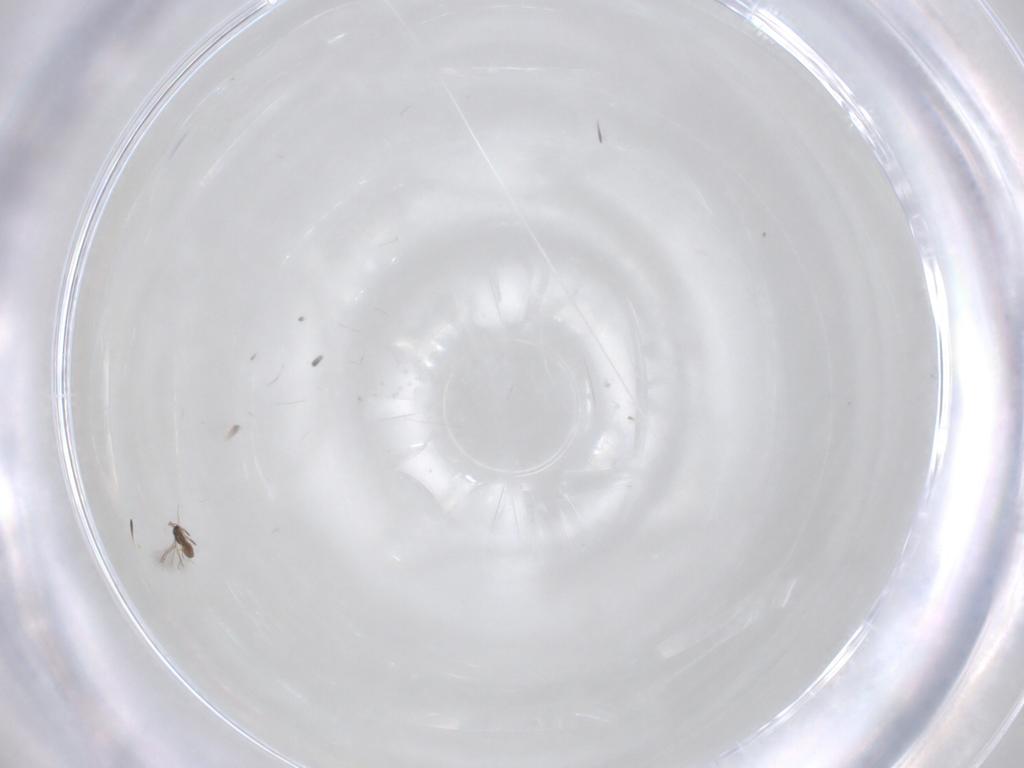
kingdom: Animalia
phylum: Arthropoda
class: Insecta
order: Hymenoptera
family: Mymaridae
